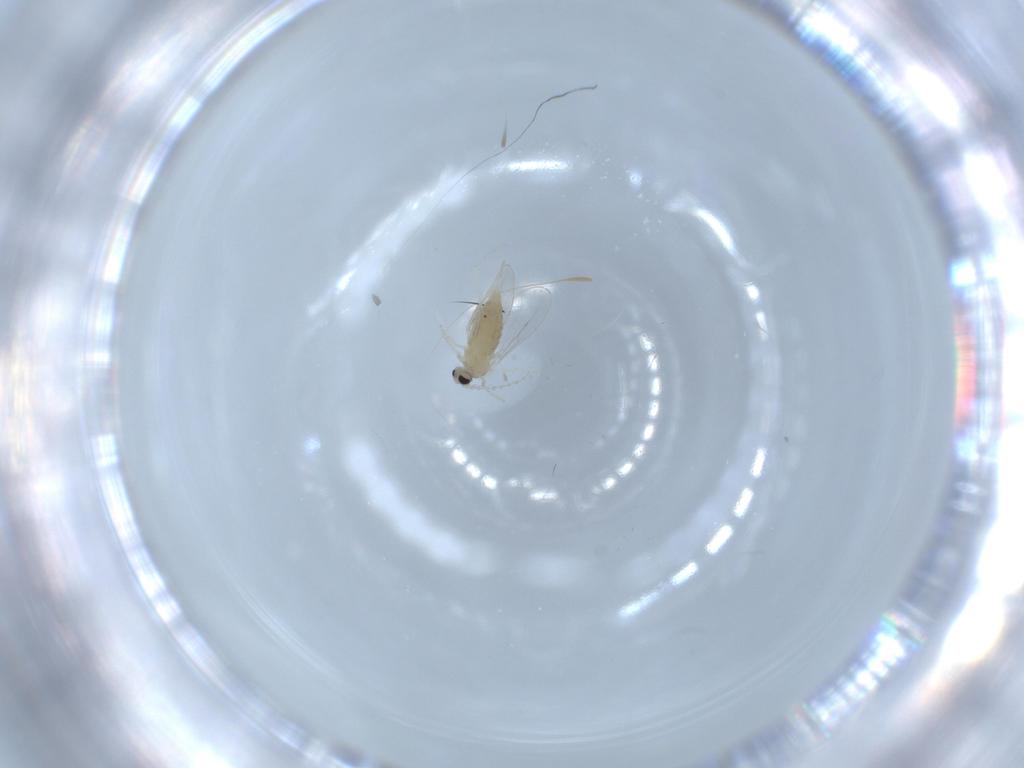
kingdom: Animalia
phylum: Arthropoda
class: Insecta
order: Diptera
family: Cecidomyiidae
